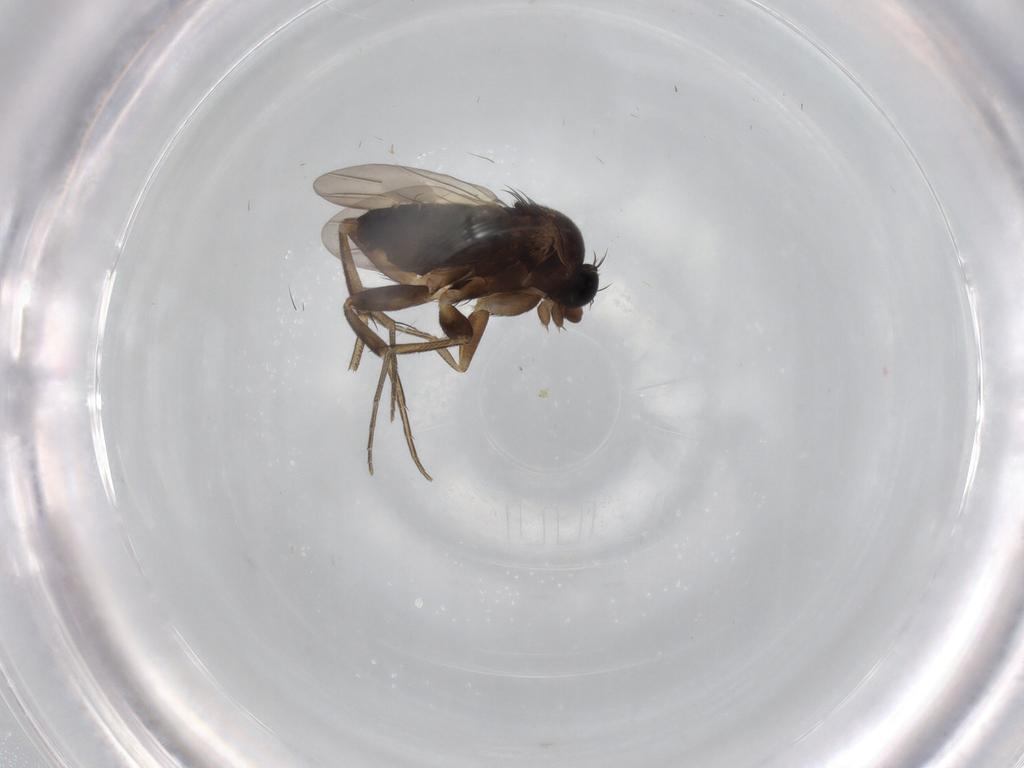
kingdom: Animalia
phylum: Arthropoda
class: Insecta
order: Diptera
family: Phoridae
